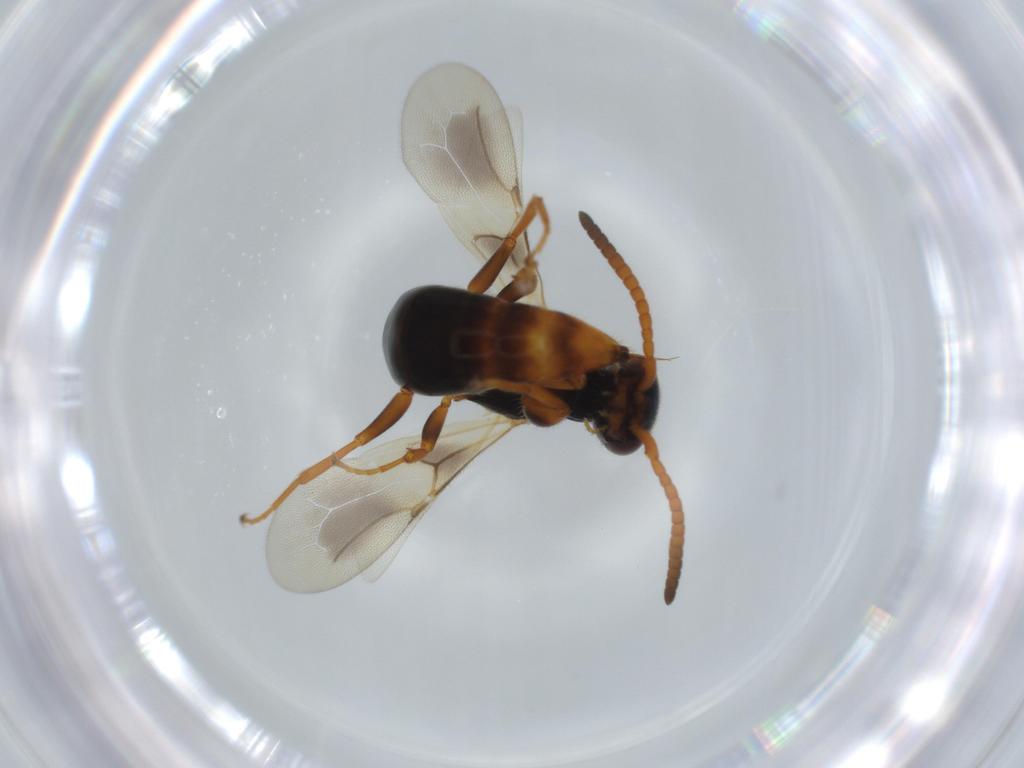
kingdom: Animalia
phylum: Arthropoda
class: Insecta
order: Hymenoptera
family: Bethylidae
